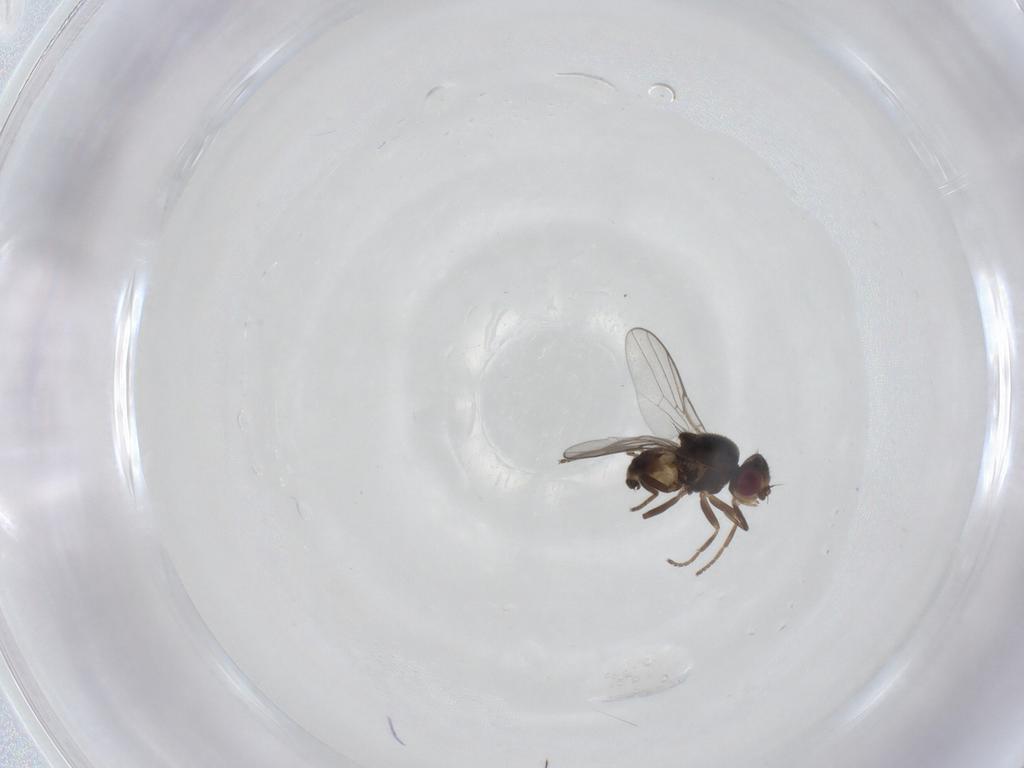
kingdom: Animalia
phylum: Arthropoda
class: Insecta
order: Diptera
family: Chloropidae
